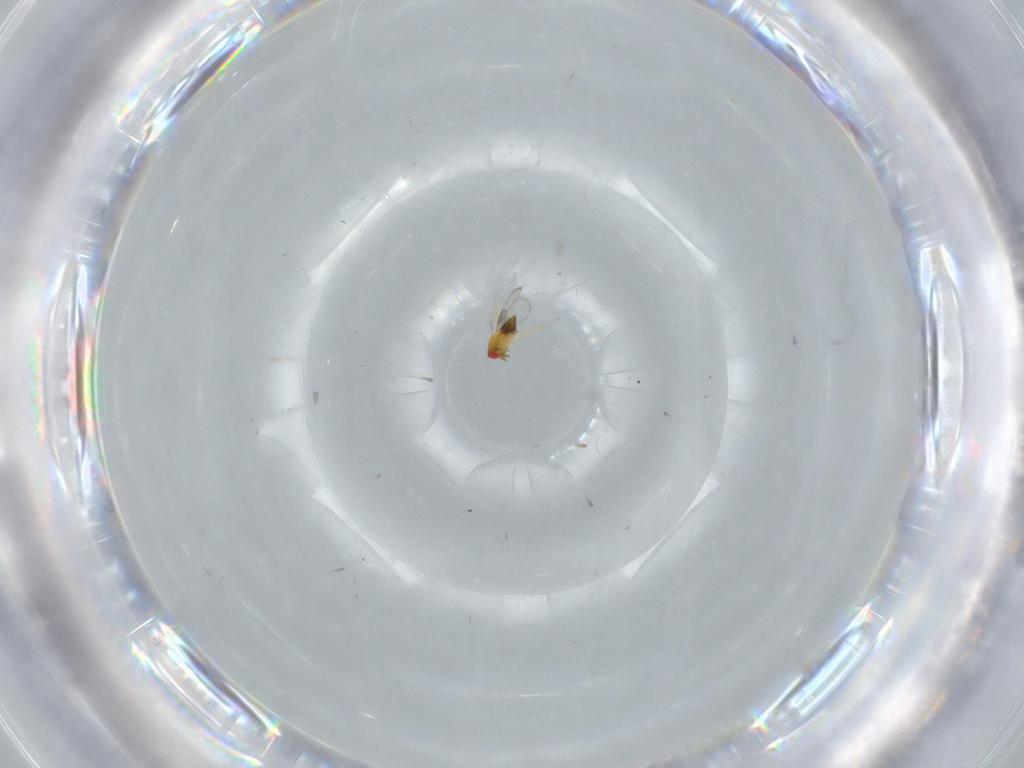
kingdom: Animalia
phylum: Arthropoda
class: Insecta
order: Hymenoptera
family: Trichogrammatidae
